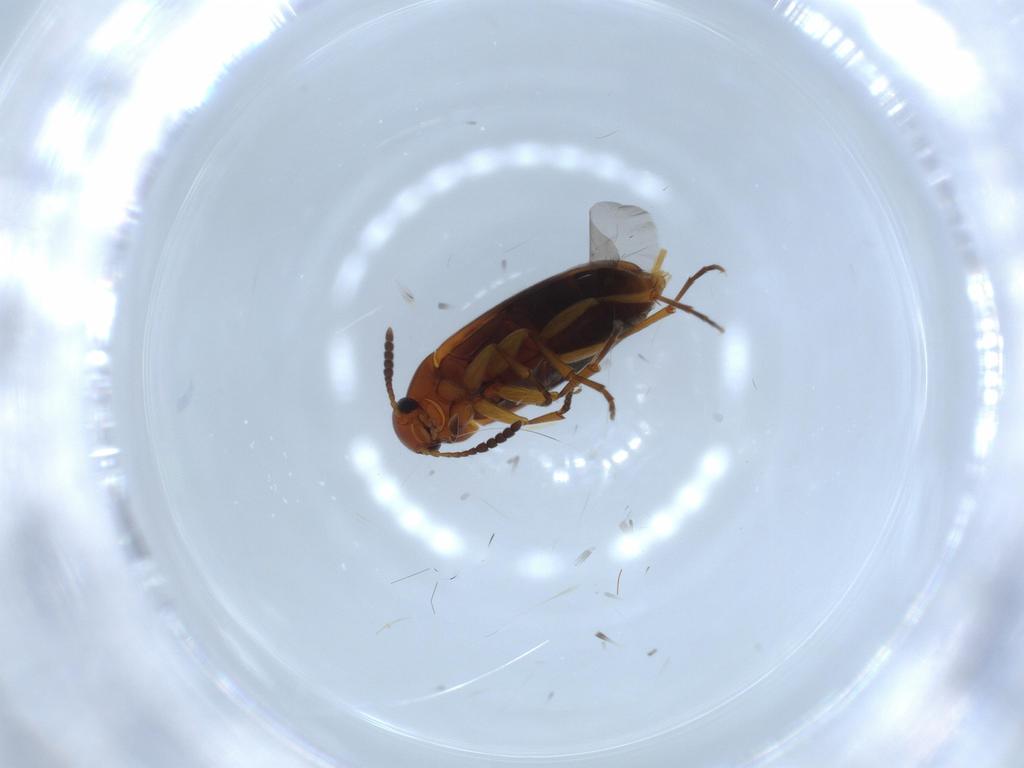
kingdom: Animalia
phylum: Arthropoda
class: Insecta
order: Coleoptera
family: Scraptiidae
